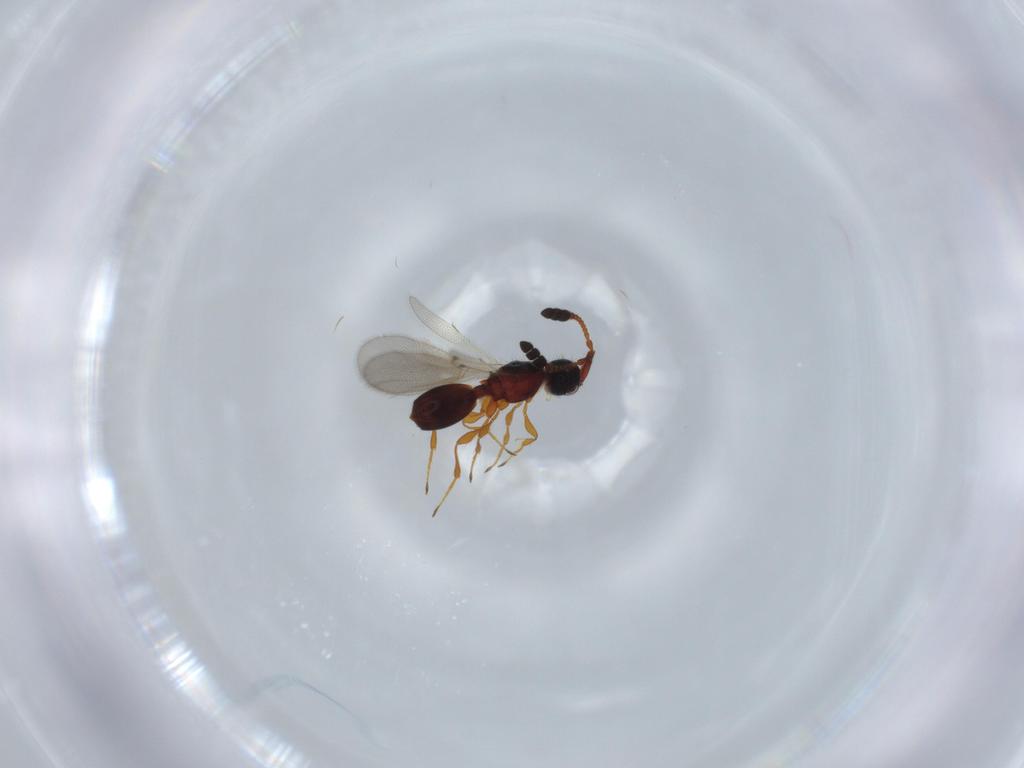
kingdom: Animalia
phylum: Arthropoda
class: Insecta
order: Hymenoptera
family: Diapriidae
